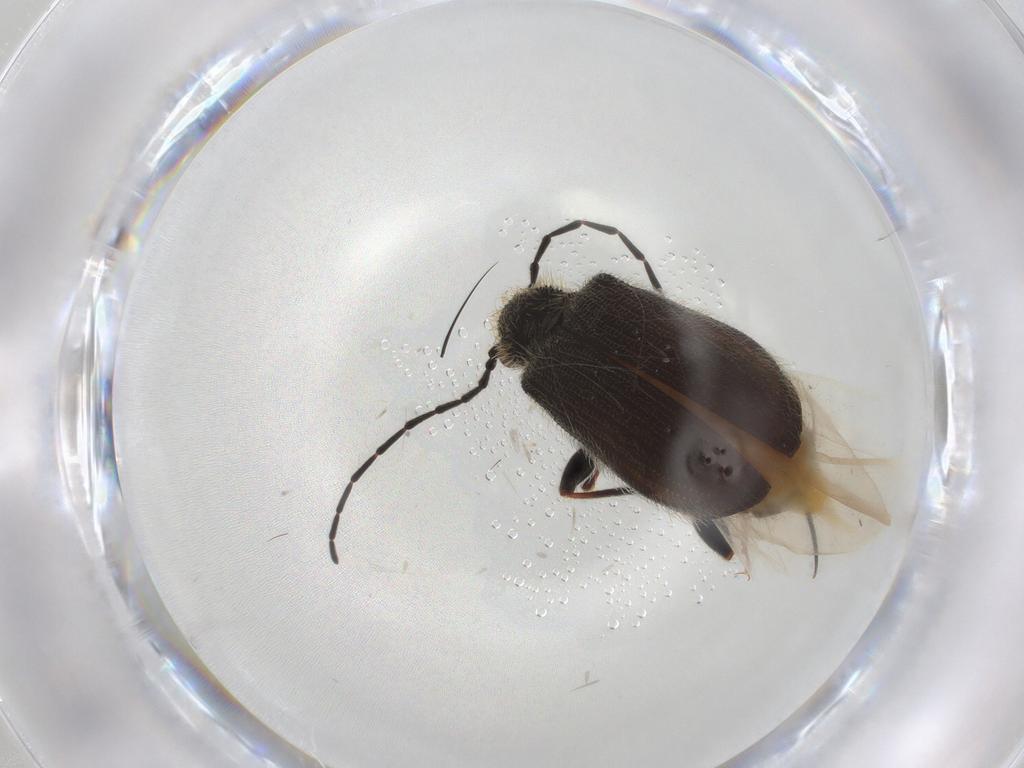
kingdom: Animalia
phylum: Arthropoda
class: Insecta
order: Coleoptera
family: Ptinidae
